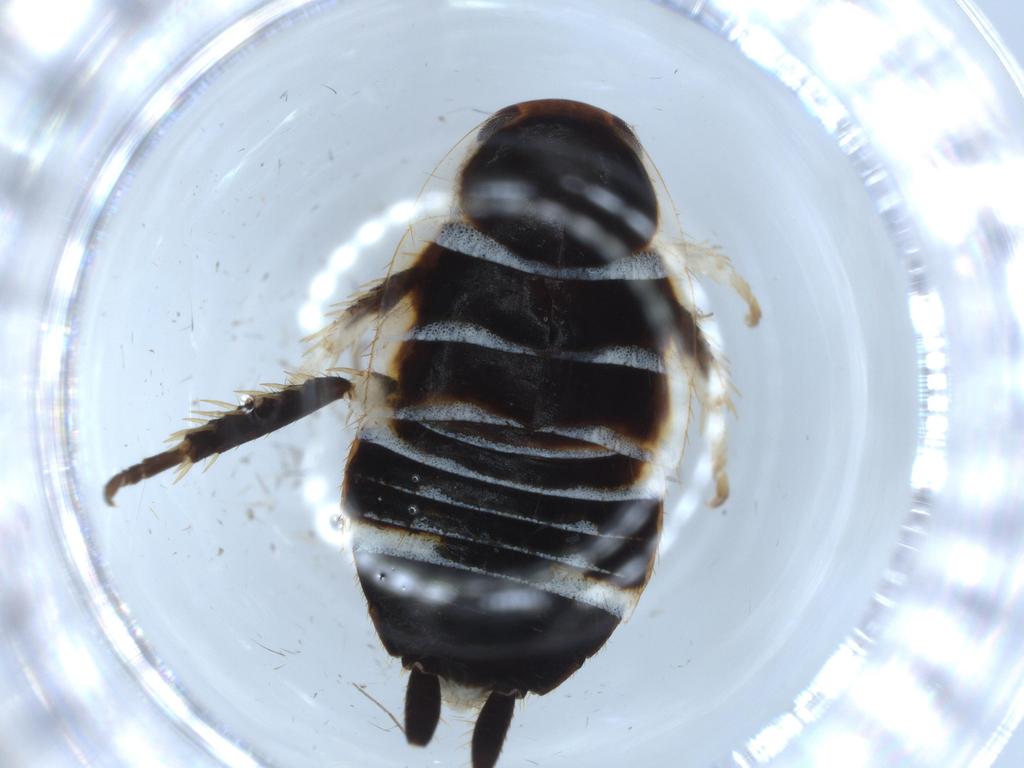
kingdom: Animalia
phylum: Arthropoda
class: Insecta
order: Blattodea
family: Ectobiidae
